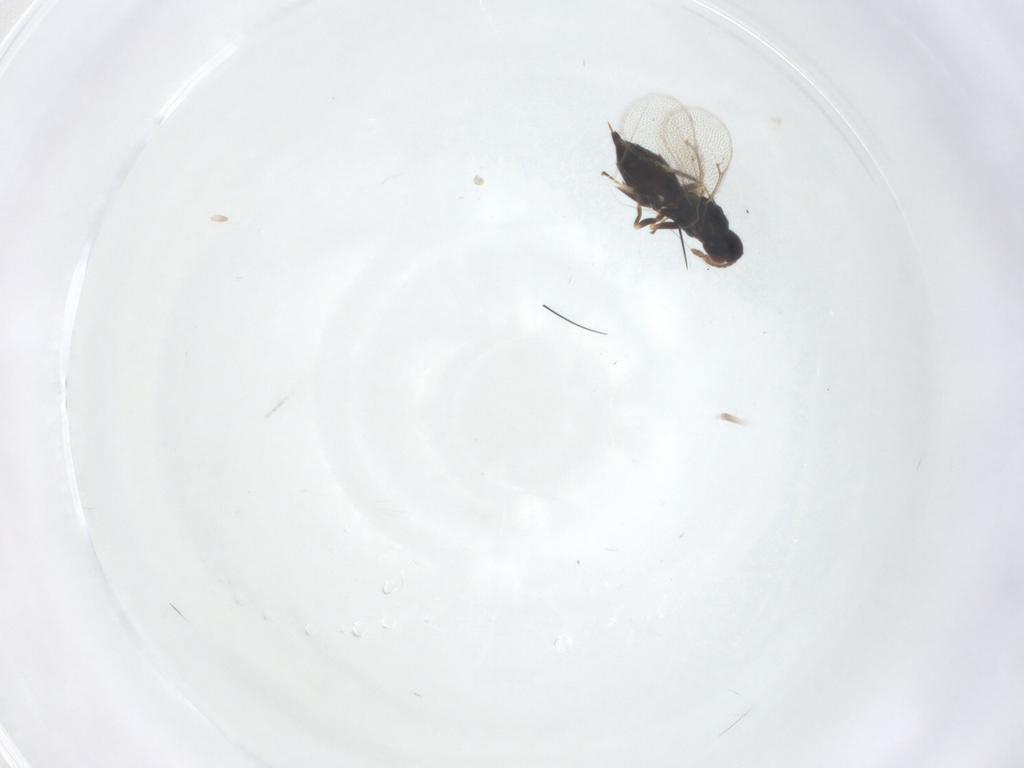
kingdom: Animalia
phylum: Arthropoda
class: Insecta
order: Hymenoptera
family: Eulophidae
